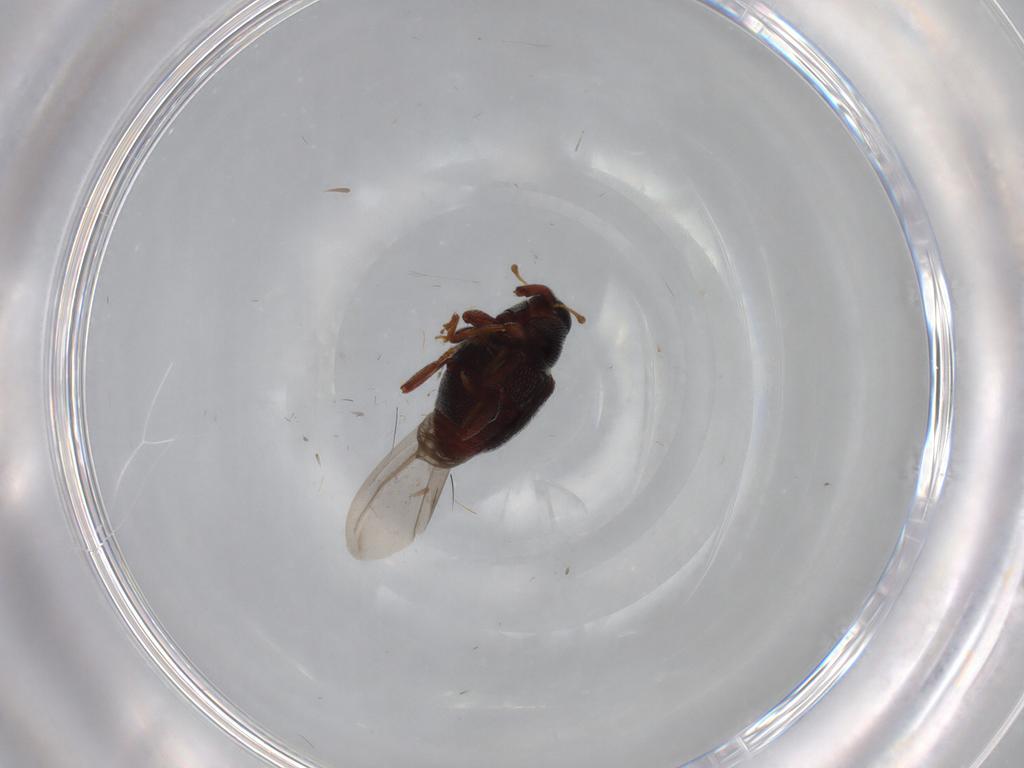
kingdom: Animalia
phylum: Arthropoda
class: Insecta
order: Coleoptera
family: Curculionidae
